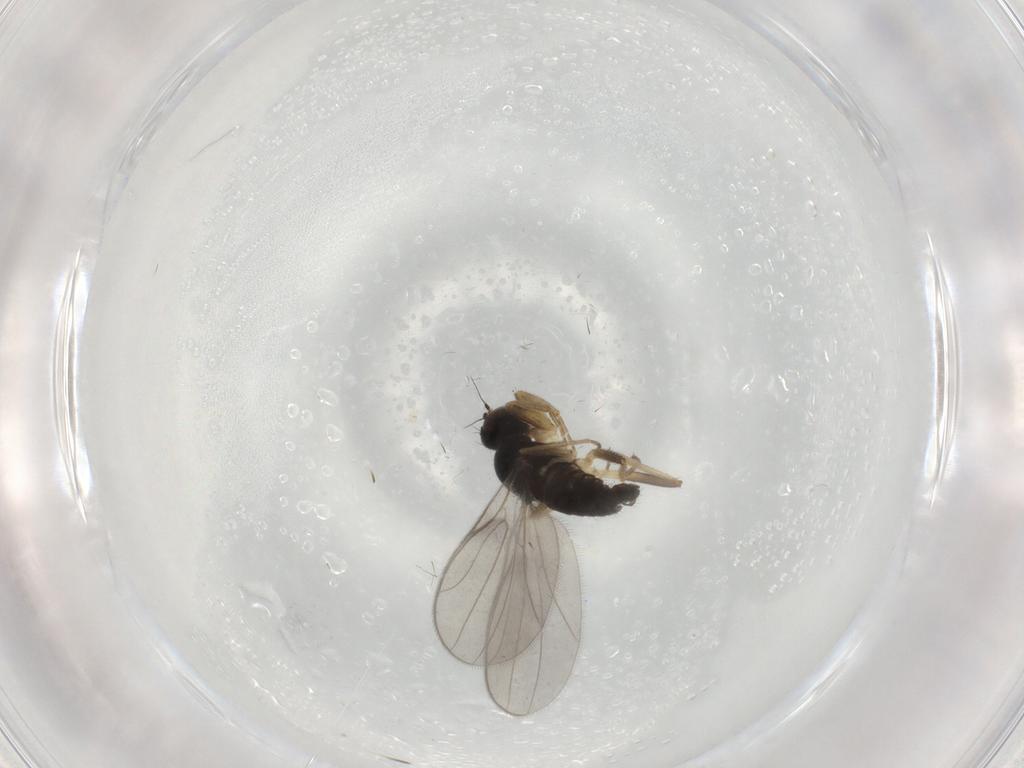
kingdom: Animalia
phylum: Arthropoda
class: Insecta
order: Diptera
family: Hybotidae
